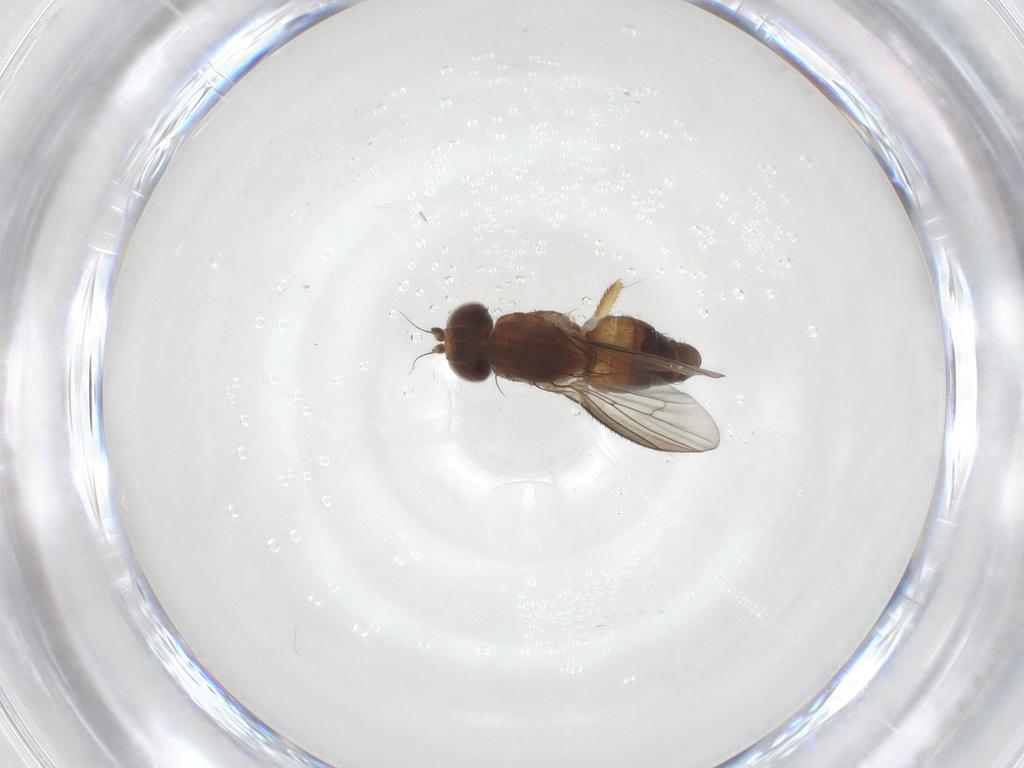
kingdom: Animalia
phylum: Arthropoda
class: Insecta
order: Diptera
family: Heleomyzidae
